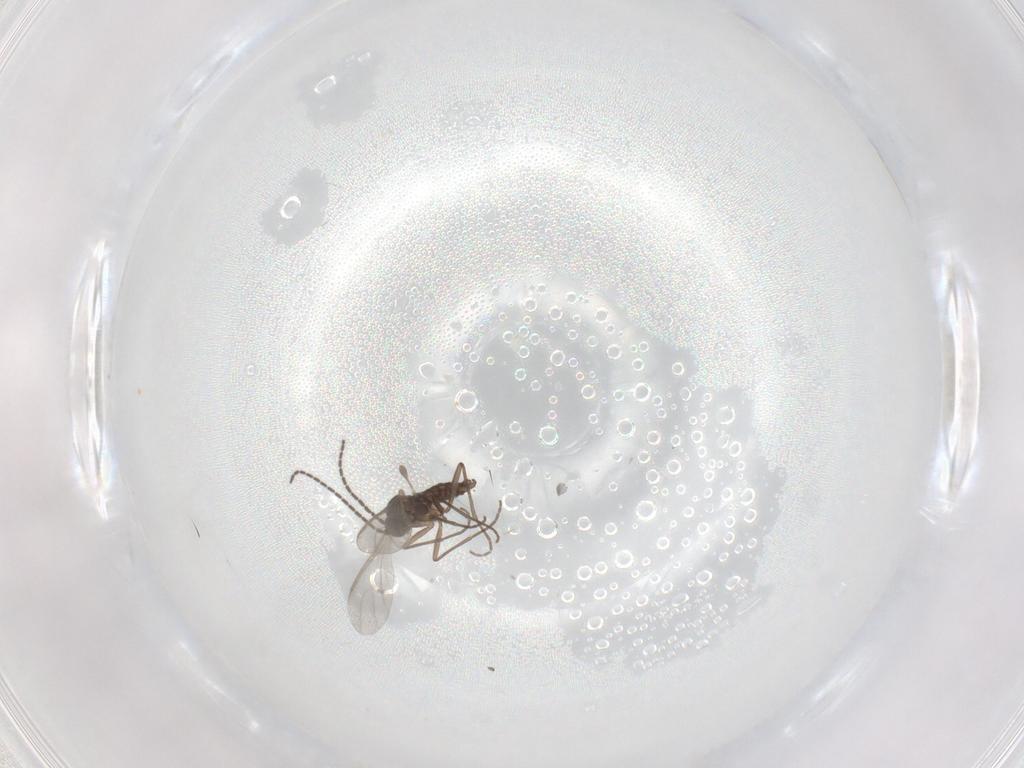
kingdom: Animalia
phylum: Arthropoda
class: Insecta
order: Diptera
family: Sciaridae
